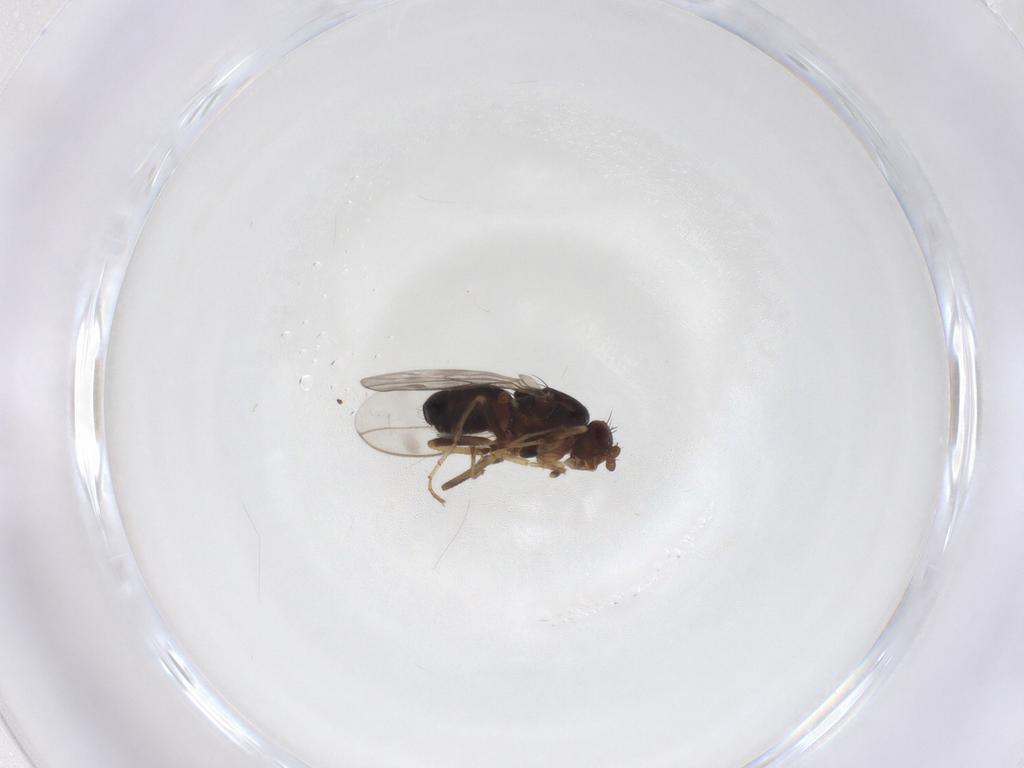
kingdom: Animalia
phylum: Arthropoda
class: Insecta
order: Diptera
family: Sphaeroceridae
